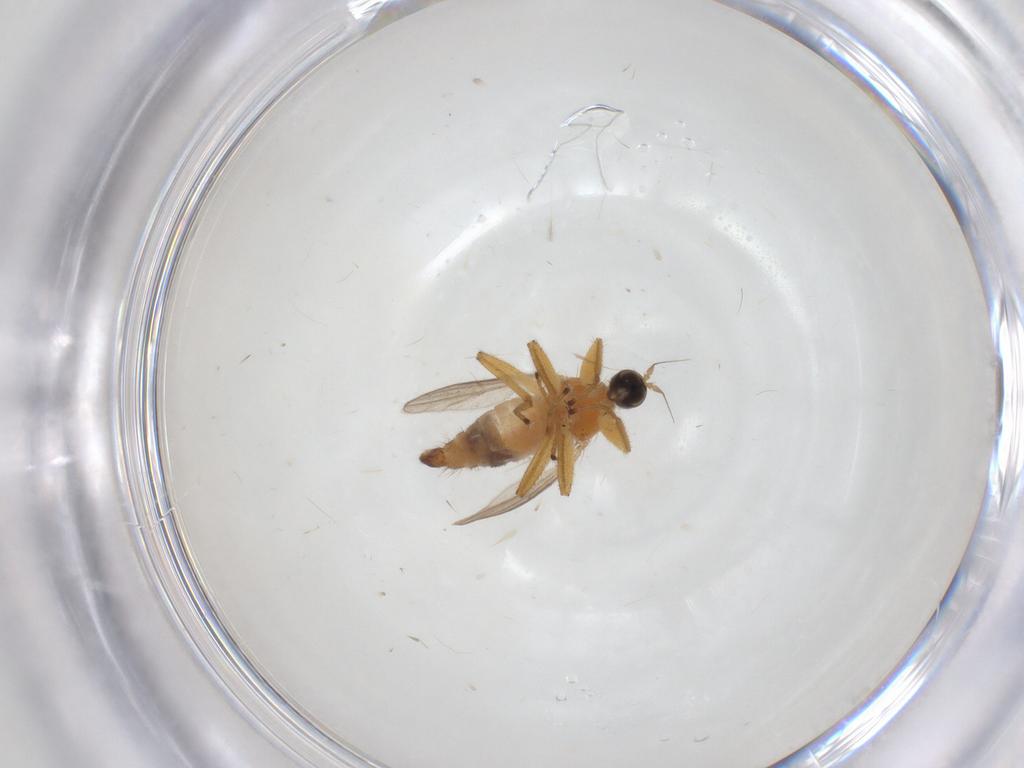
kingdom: Animalia
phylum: Arthropoda
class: Insecta
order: Diptera
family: Hybotidae
